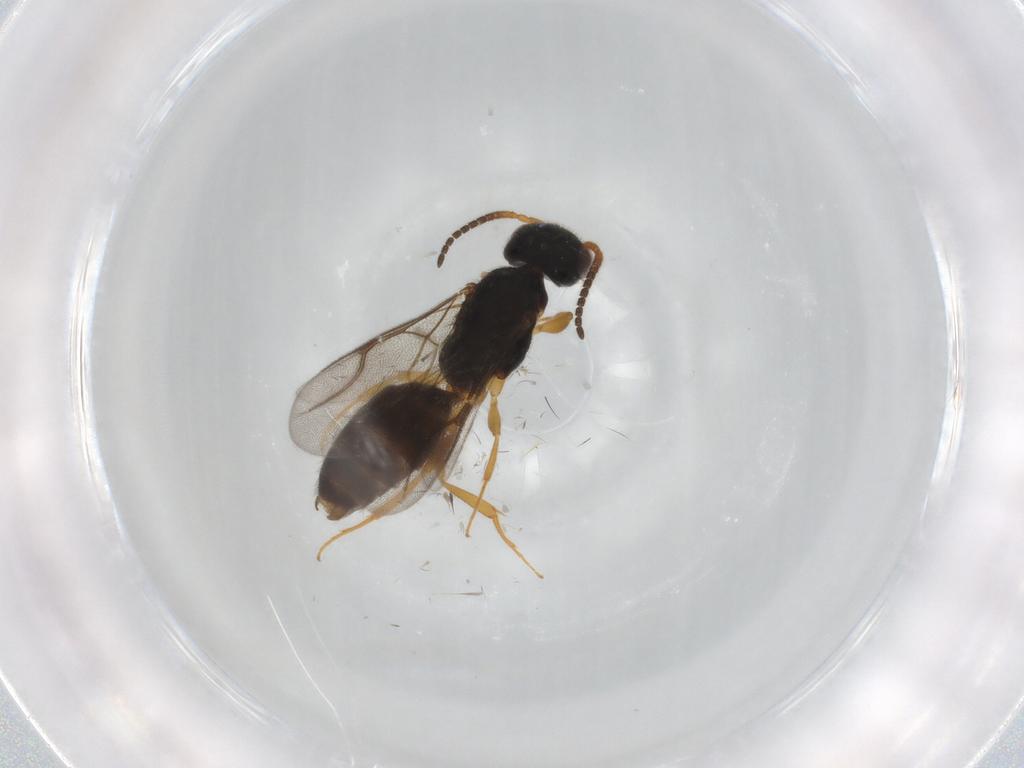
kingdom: Animalia
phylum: Arthropoda
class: Insecta
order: Hymenoptera
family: Bethylidae
